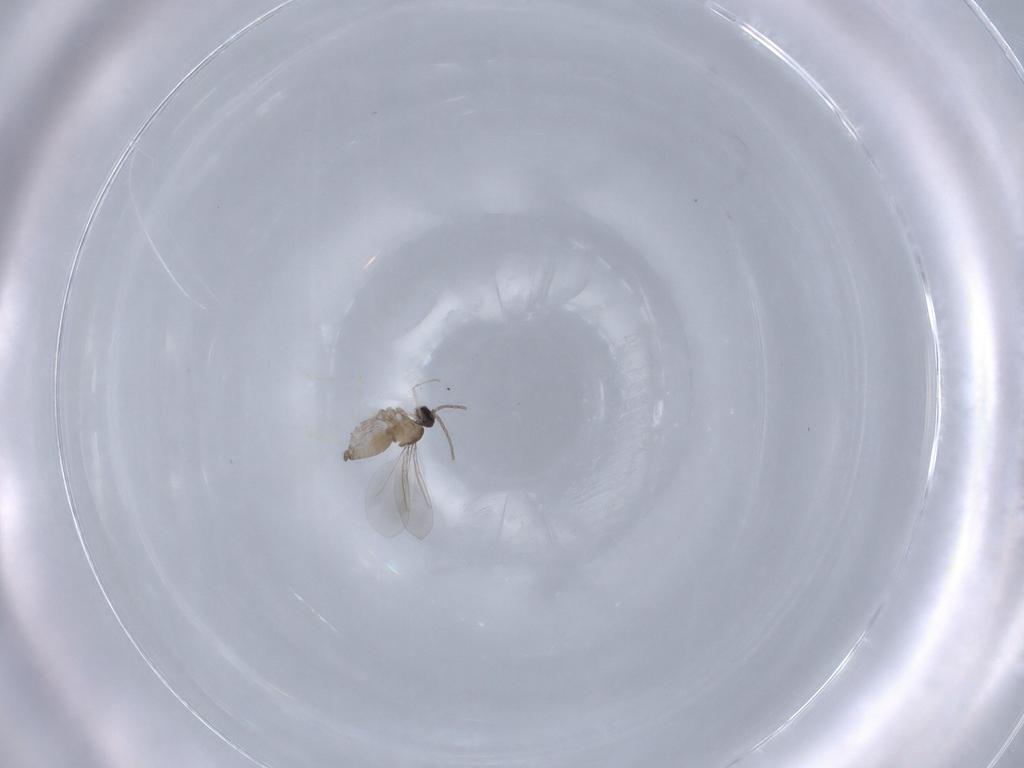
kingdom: Animalia
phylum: Arthropoda
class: Insecta
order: Diptera
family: Cecidomyiidae
